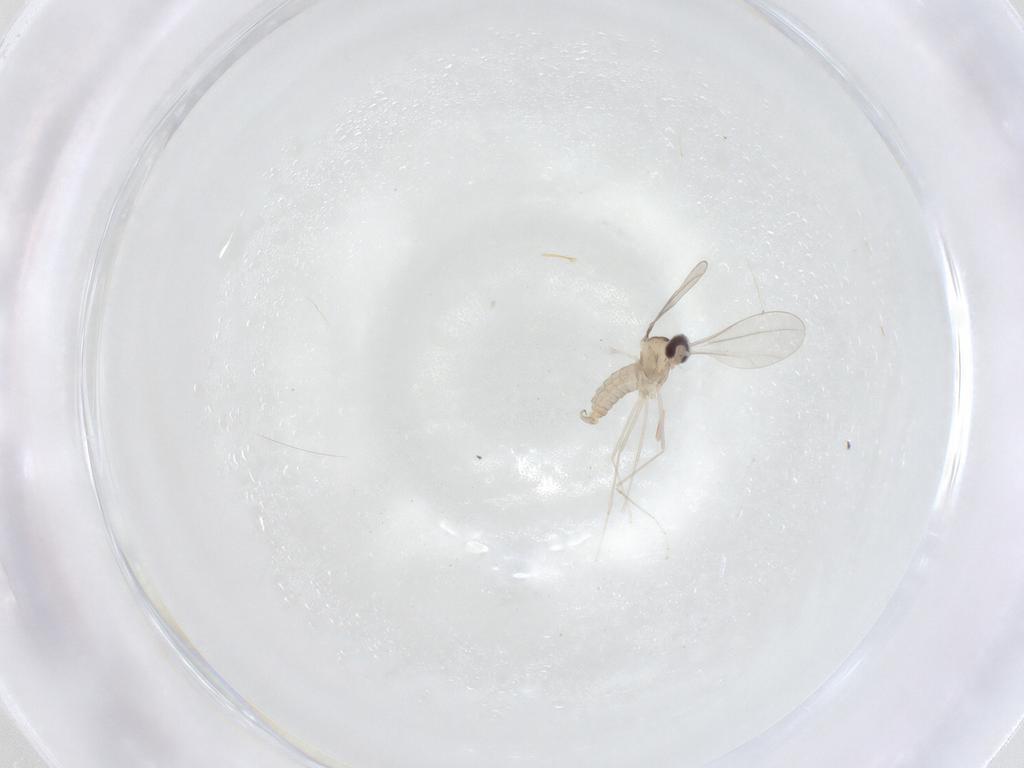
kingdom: Animalia
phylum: Arthropoda
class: Insecta
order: Diptera
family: Cecidomyiidae
